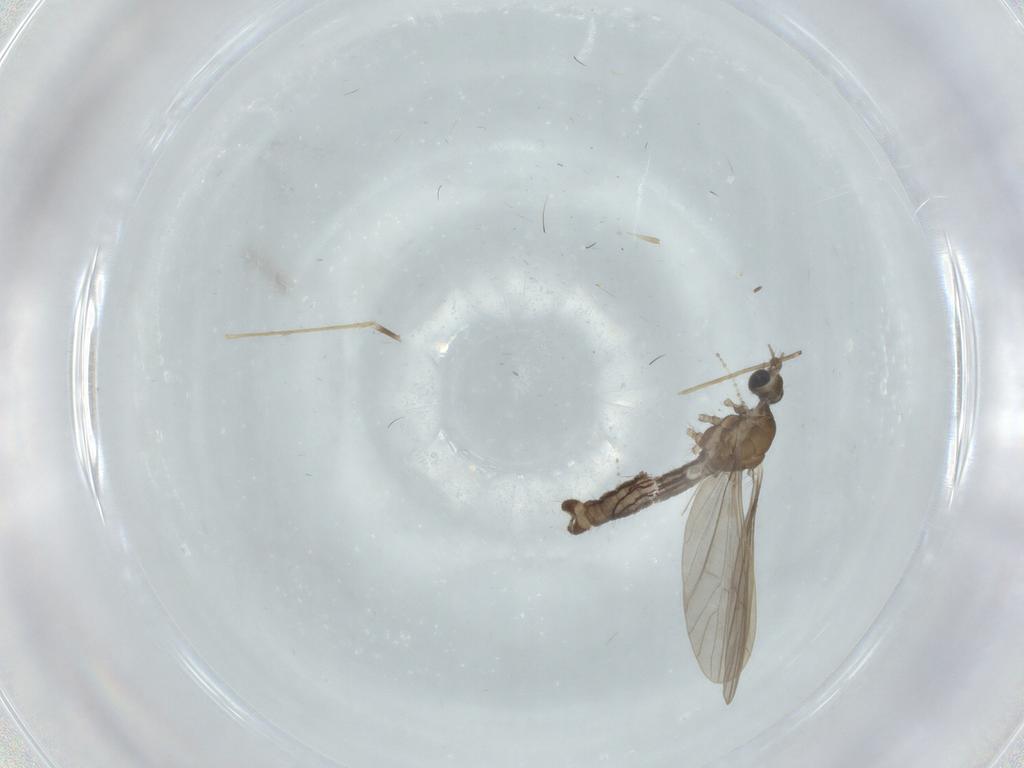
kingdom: Animalia
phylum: Arthropoda
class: Insecta
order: Diptera
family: Limoniidae
